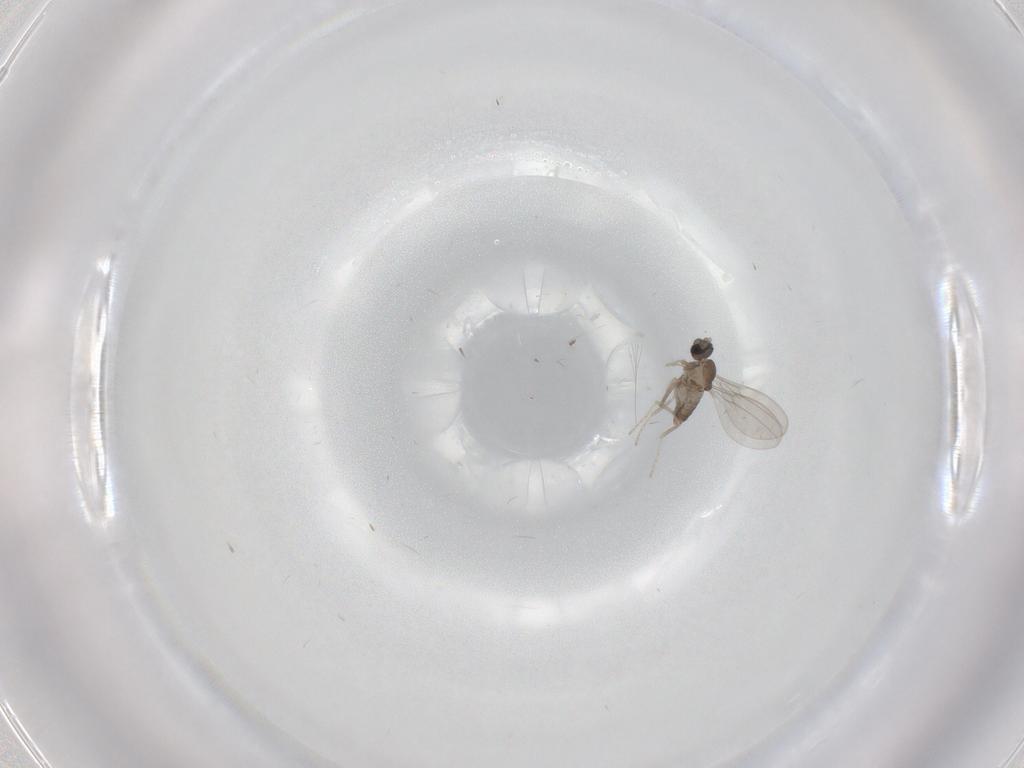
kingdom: Animalia
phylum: Arthropoda
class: Insecta
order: Diptera
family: Cecidomyiidae
